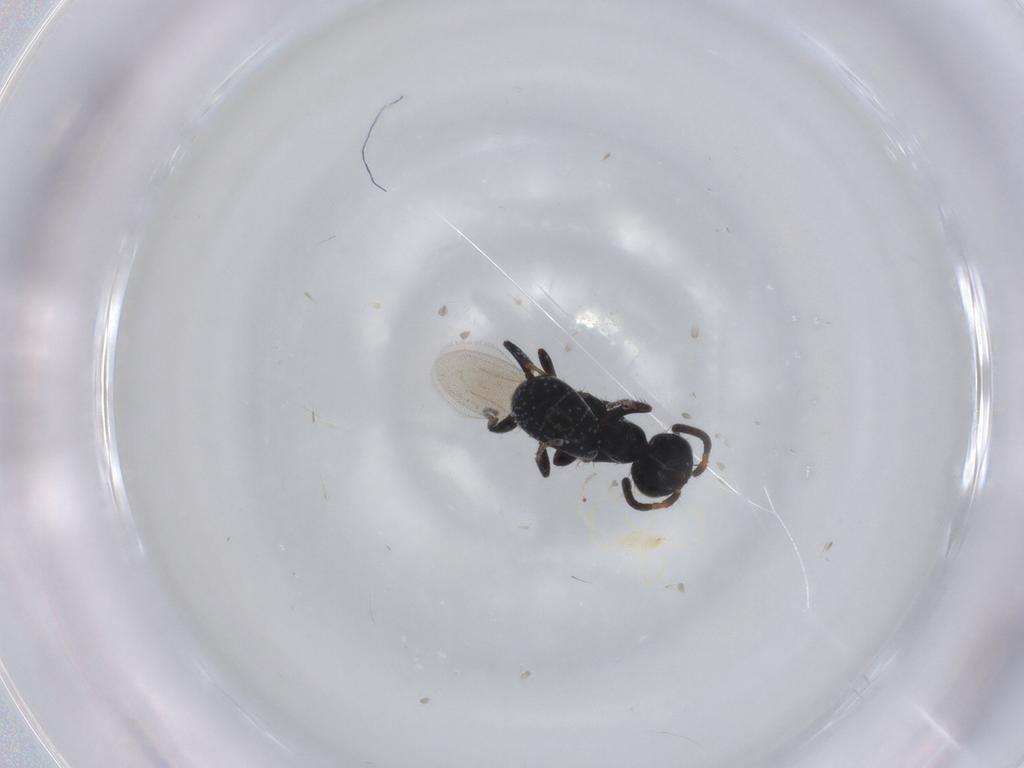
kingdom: Animalia
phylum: Arthropoda
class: Insecta
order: Hymenoptera
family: Bethylidae
